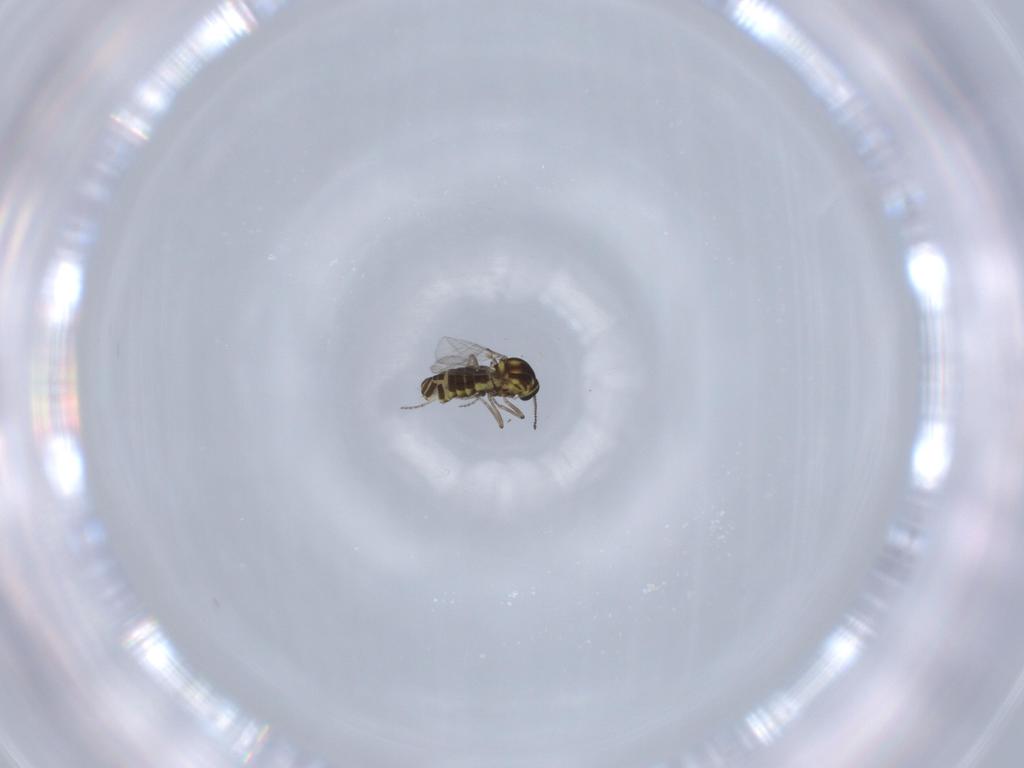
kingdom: Animalia
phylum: Arthropoda
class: Insecta
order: Diptera
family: Ceratopogonidae
